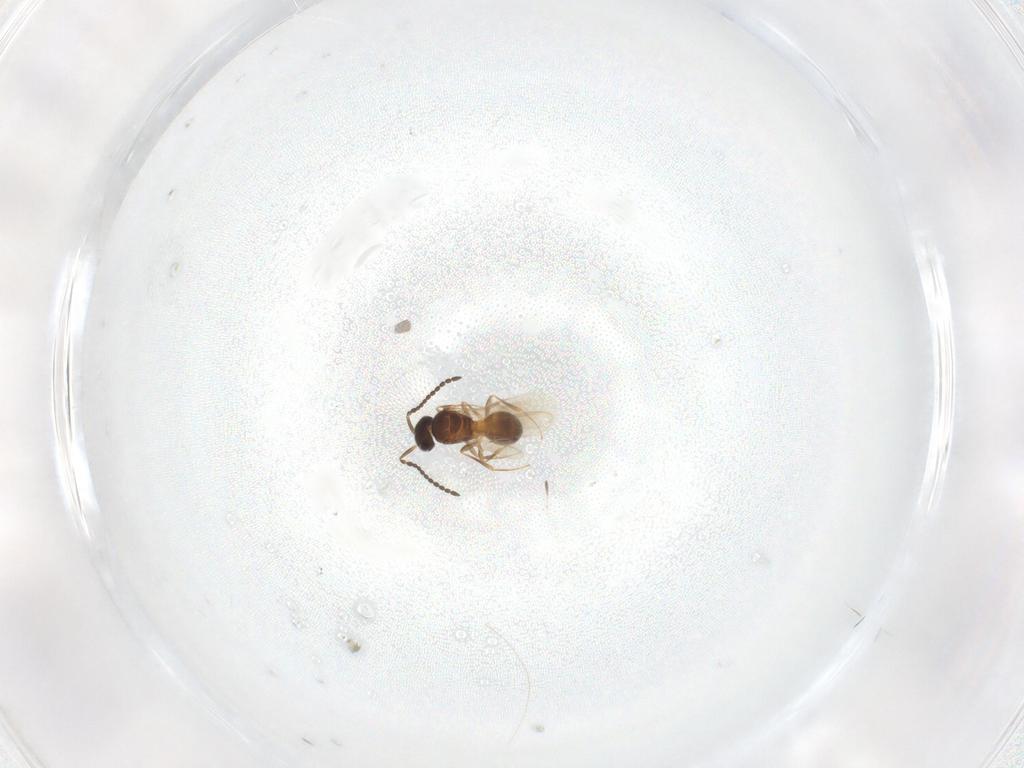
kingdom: Animalia
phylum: Arthropoda
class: Insecta
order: Hymenoptera
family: Scelionidae
